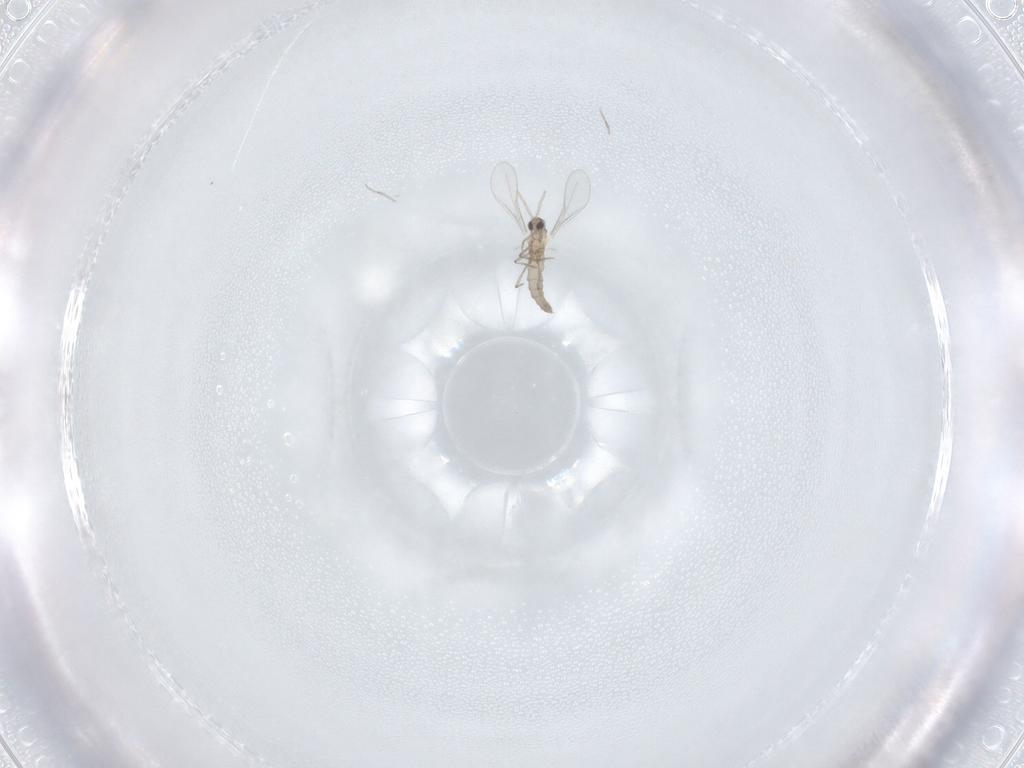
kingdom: Animalia
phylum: Arthropoda
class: Insecta
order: Diptera
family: Cecidomyiidae
